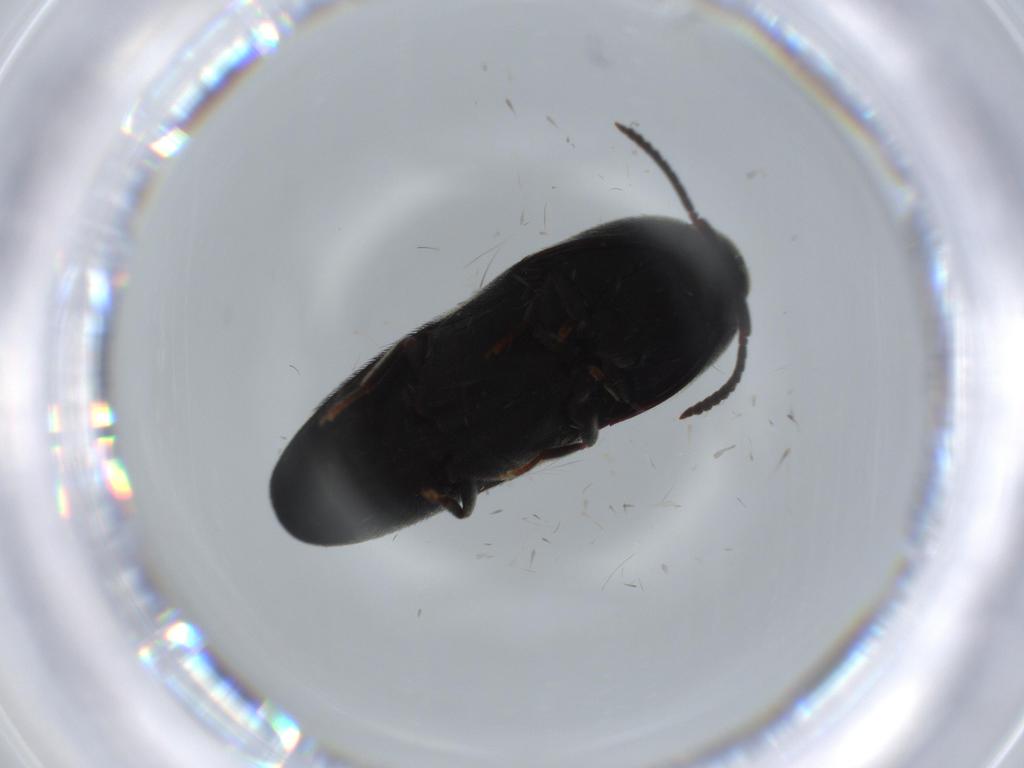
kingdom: Animalia
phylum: Arthropoda
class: Insecta
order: Coleoptera
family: Eucnemidae
